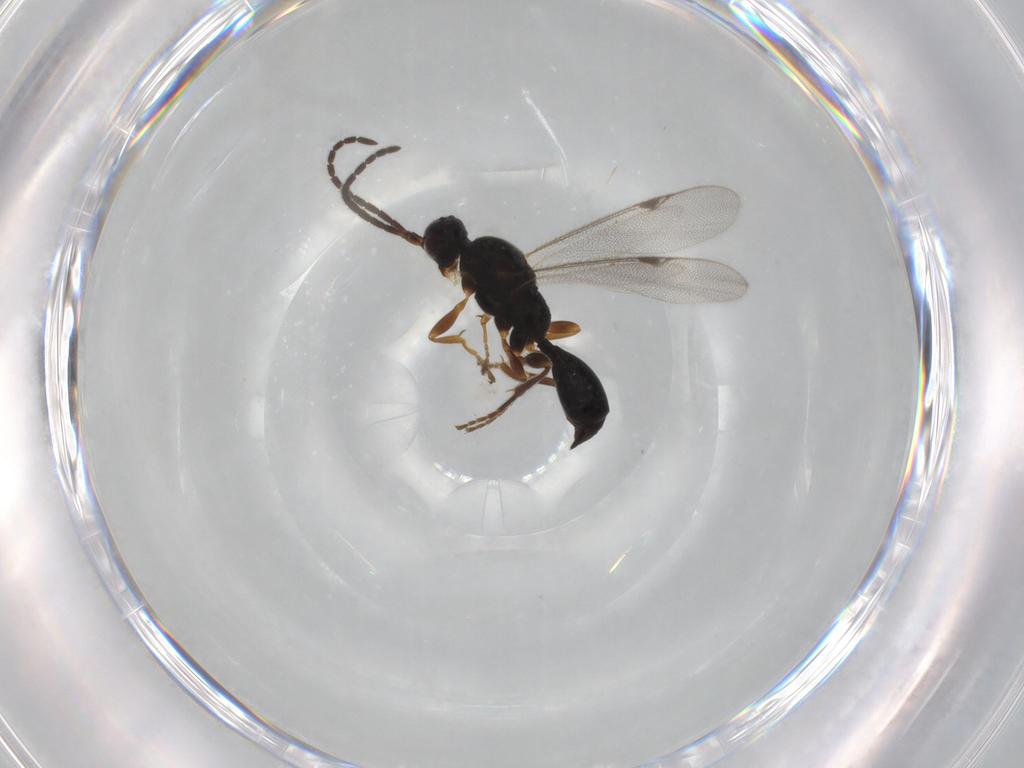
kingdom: Animalia
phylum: Arthropoda
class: Insecta
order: Hymenoptera
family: Proctotrupidae
